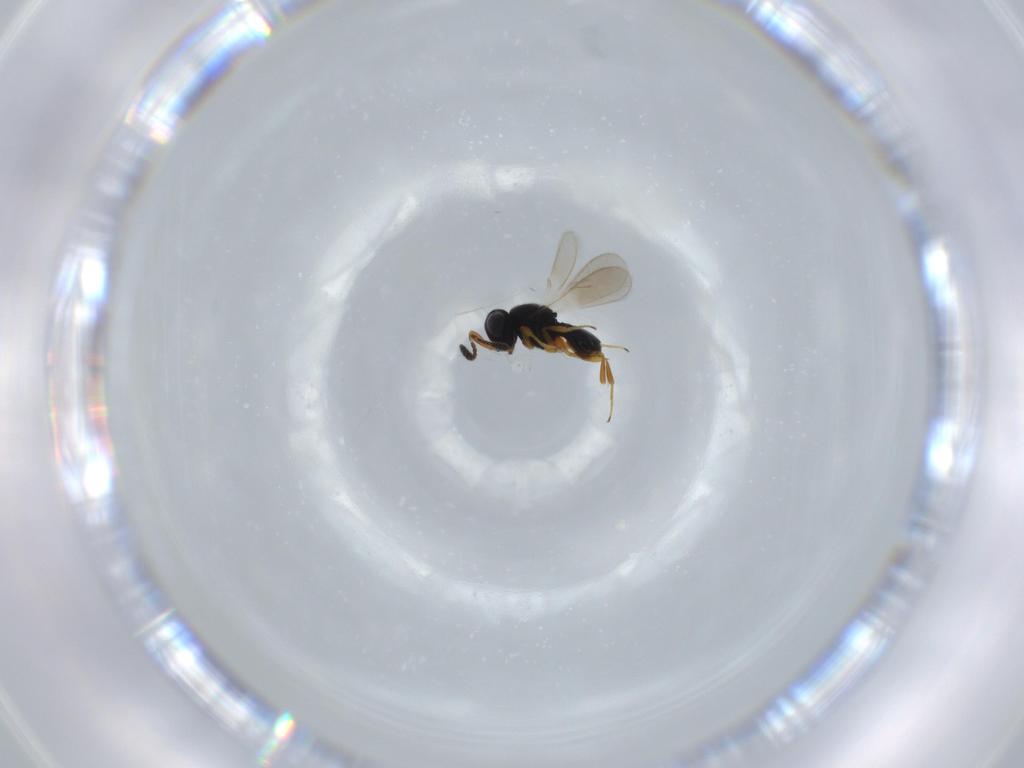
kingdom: Animalia
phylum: Arthropoda
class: Insecta
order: Hymenoptera
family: Scelionidae
